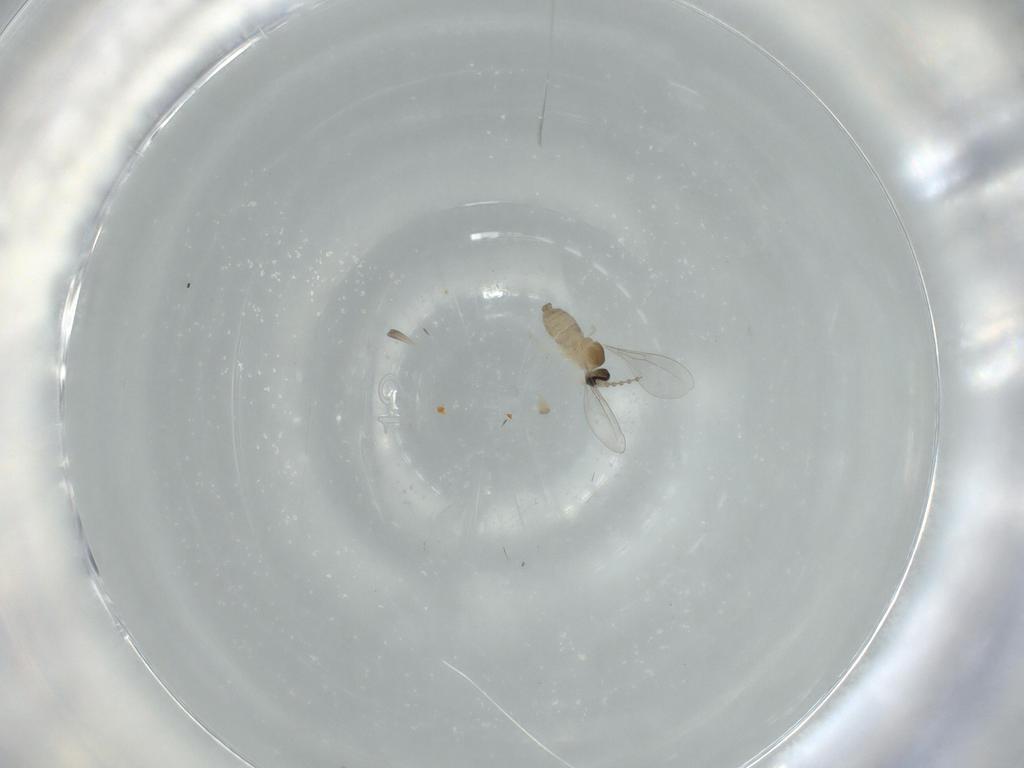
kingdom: Animalia
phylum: Arthropoda
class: Insecta
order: Diptera
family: Cecidomyiidae
